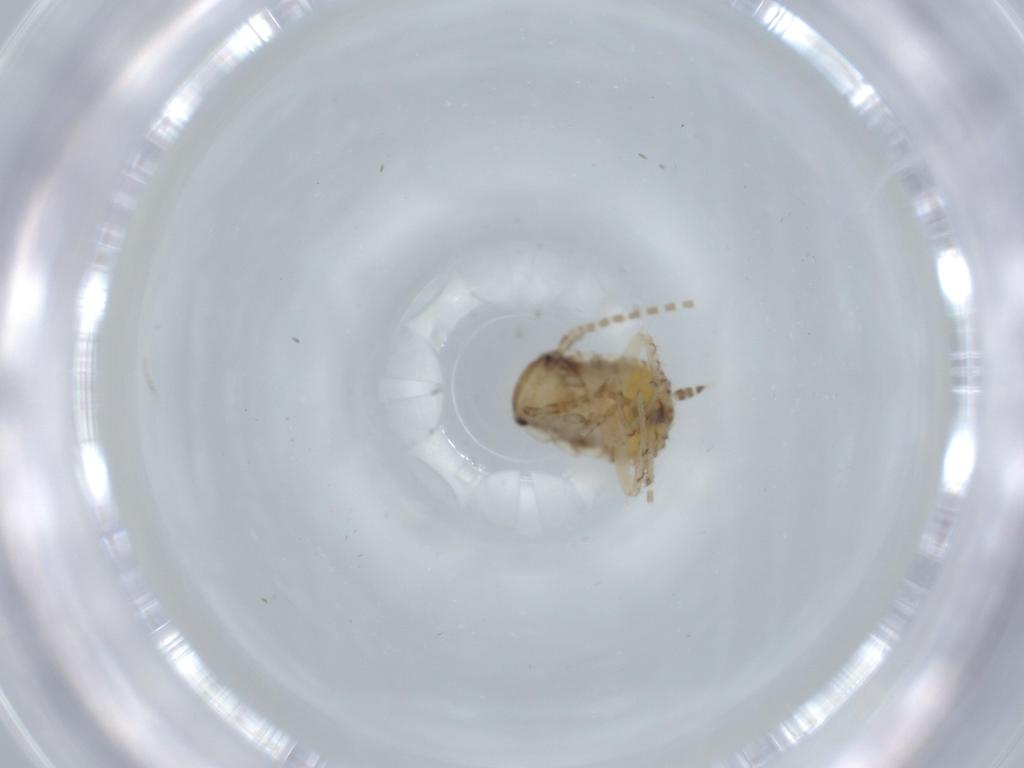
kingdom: Animalia
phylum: Arthropoda
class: Insecta
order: Blattodea
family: Ectobiidae
